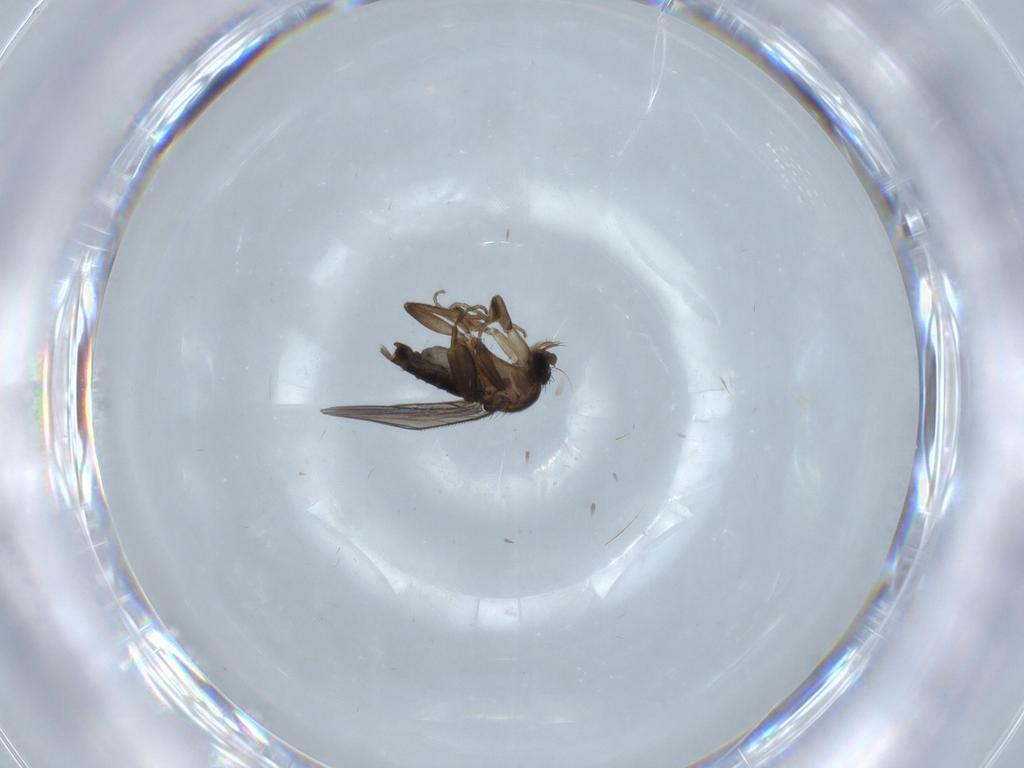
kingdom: Animalia
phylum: Arthropoda
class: Insecta
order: Diptera
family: Phoridae
